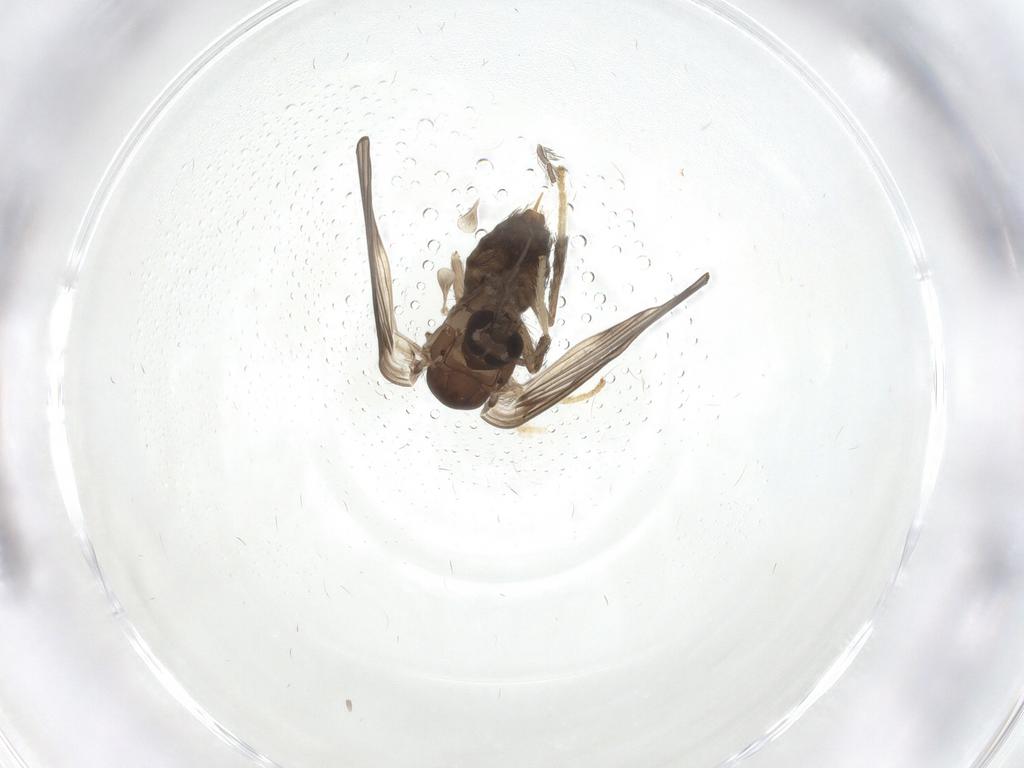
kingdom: Animalia
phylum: Arthropoda
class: Insecta
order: Diptera
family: Psychodidae
